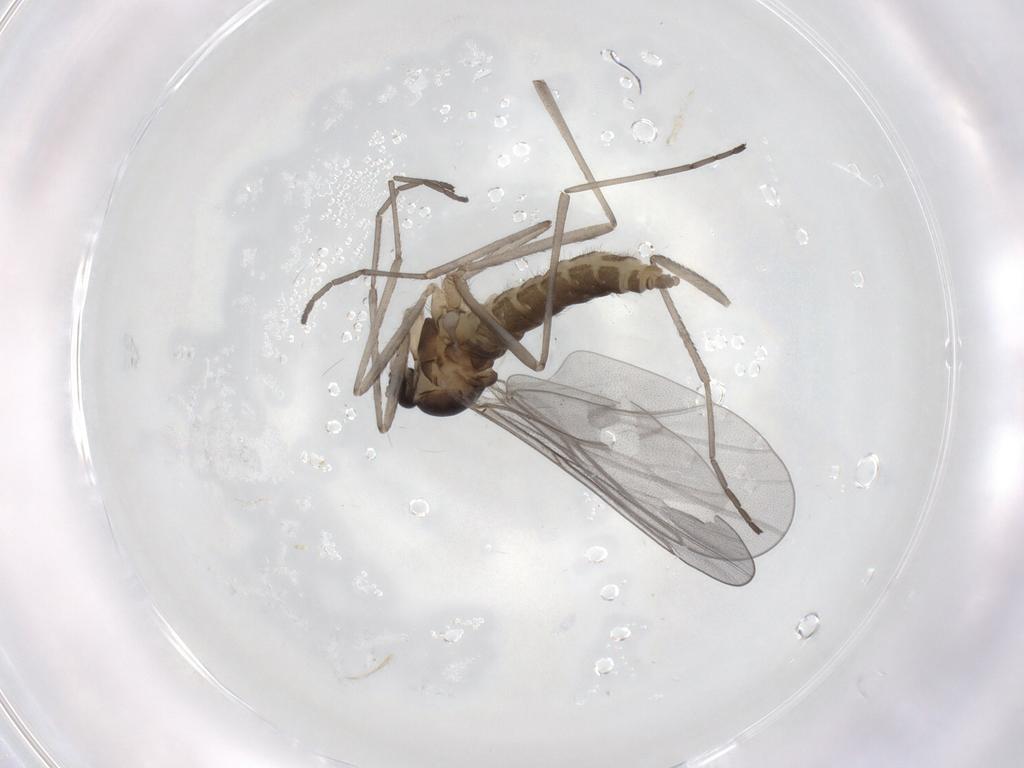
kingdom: Animalia
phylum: Arthropoda
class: Insecta
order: Diptera
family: Cecidomyiidae
